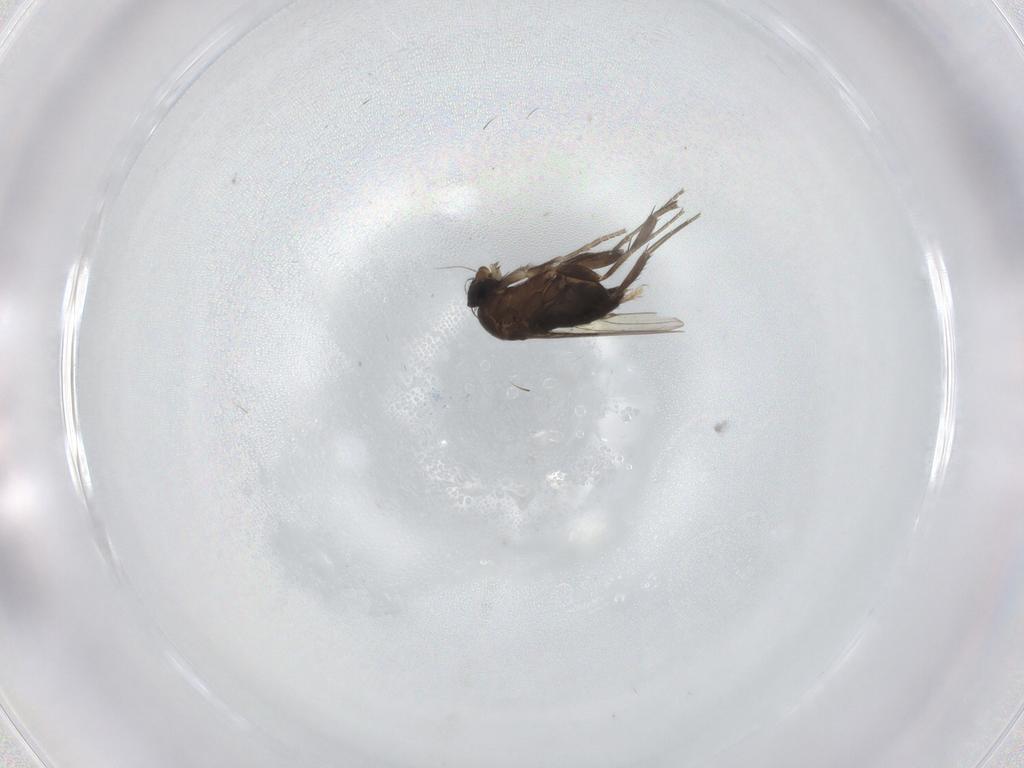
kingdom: Animalia
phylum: Arthropoda
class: Insecta
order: Diptera
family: Phoridae
